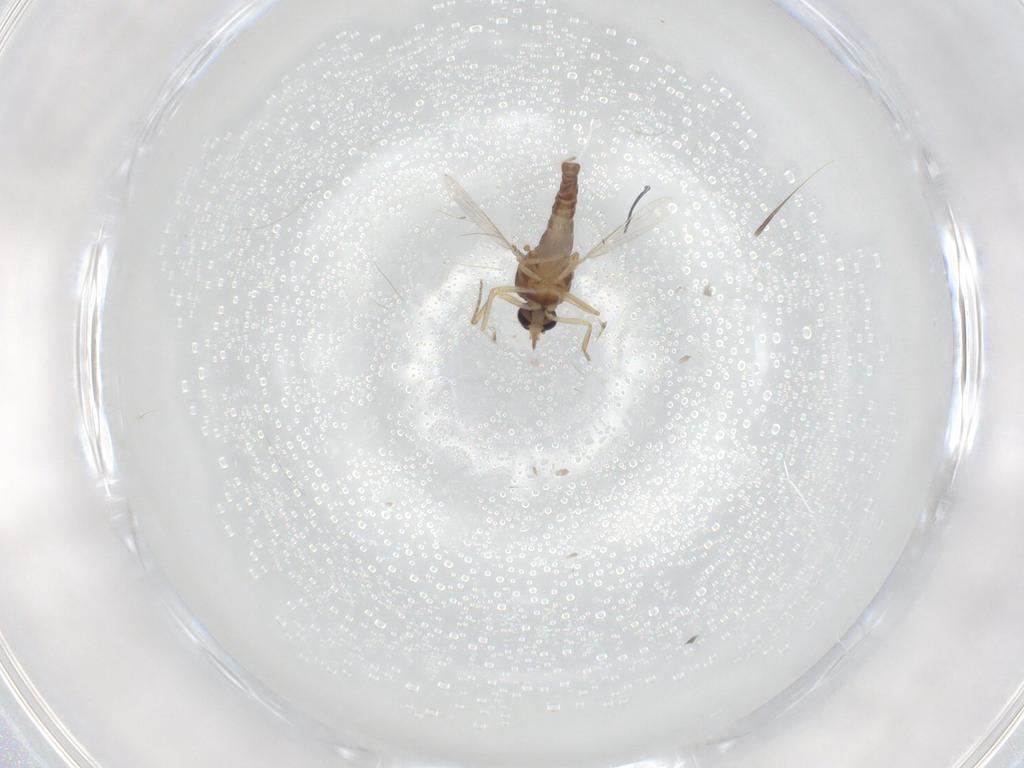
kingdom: Animalia
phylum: Arthropoda
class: Insecta
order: Diptera
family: Ceratopogonidae
